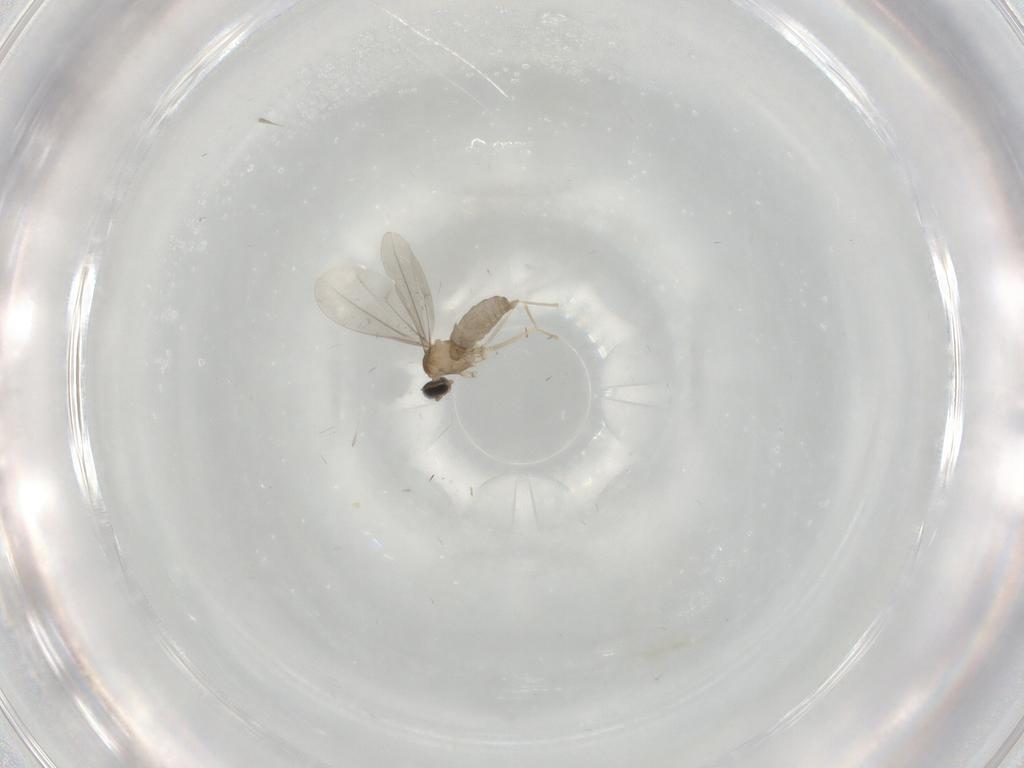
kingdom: Animalia
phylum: Arthropoda
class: Insecta
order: Diptera
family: Cecidomyiidae
